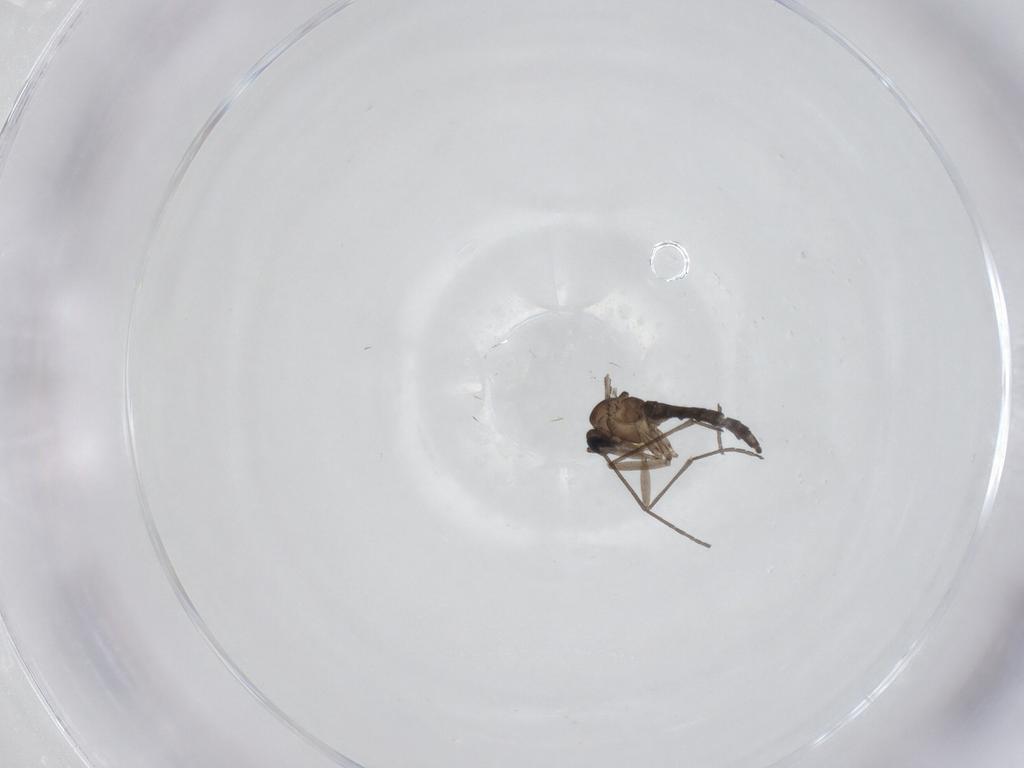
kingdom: Animalia
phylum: Arthropoda
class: Insecta
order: Diptera
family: Sciaridae
